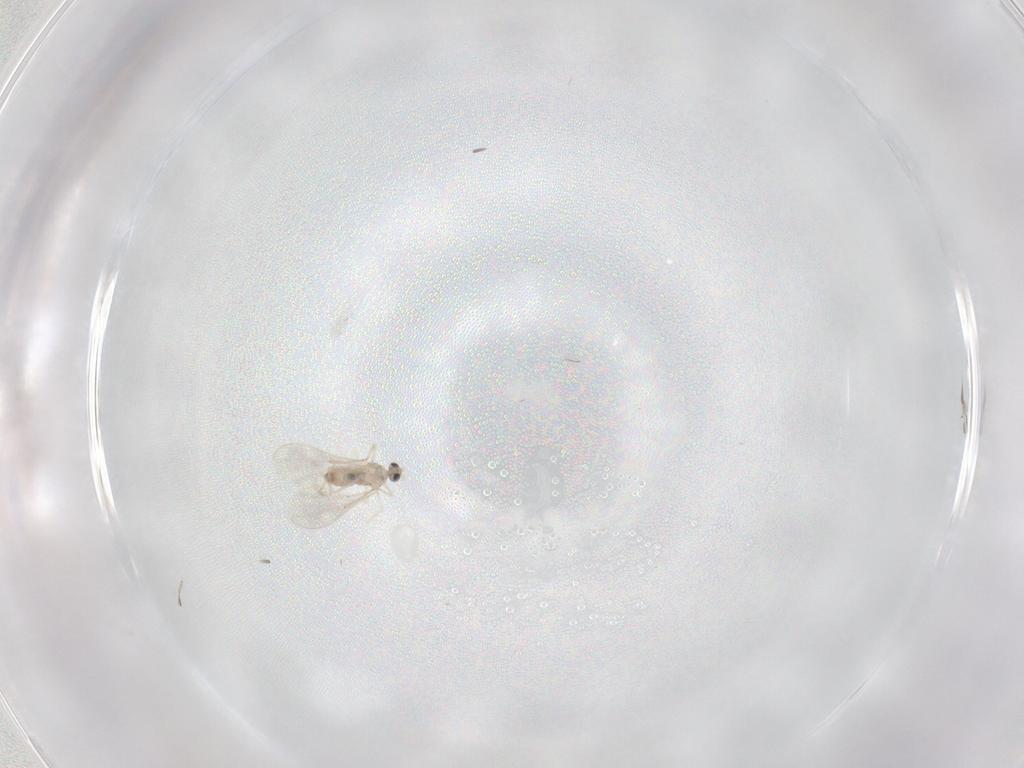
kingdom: Animalia
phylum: Arthropoda
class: Insecta
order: Diptera
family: Cecidomyiidae
